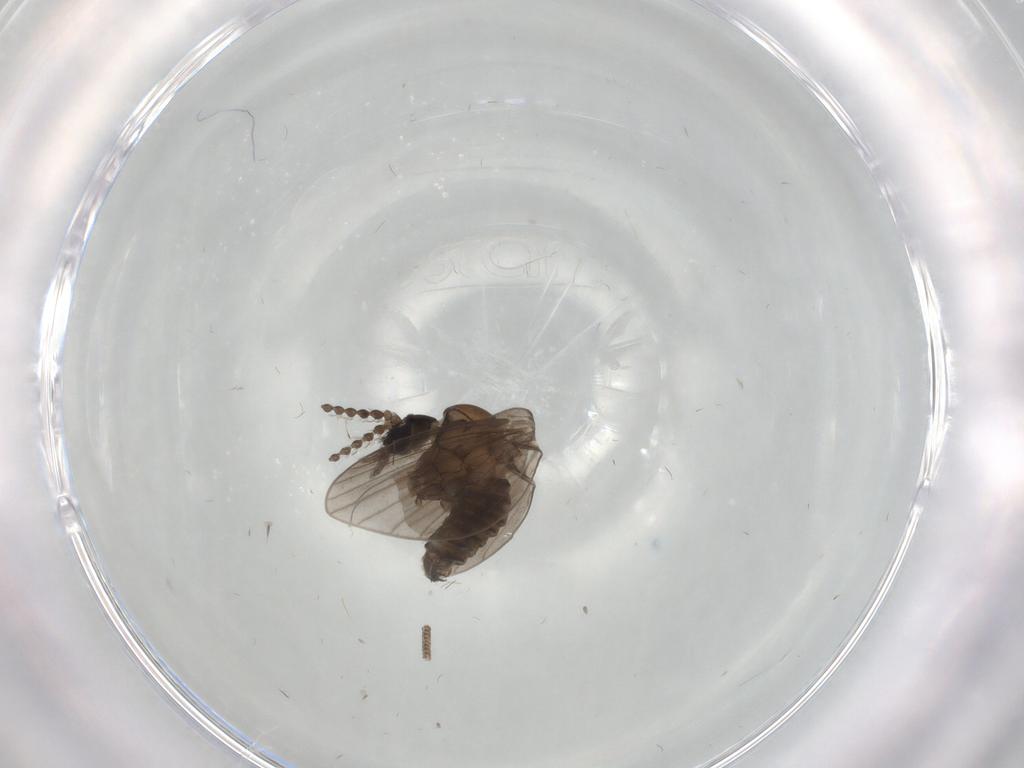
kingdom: Animalia
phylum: Arthropoda
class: Insecta
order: Diptera
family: Psychodidae
